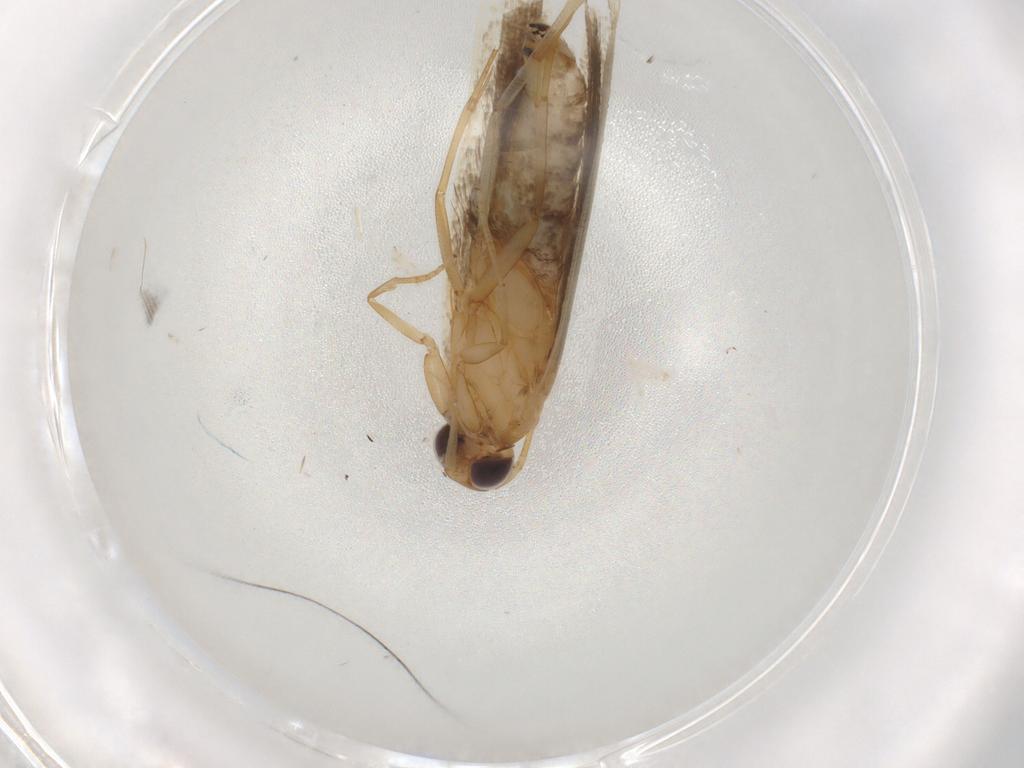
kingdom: Animalia
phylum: Arthropoda
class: Insecta
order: Lepidoptera
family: Gelechiidae
